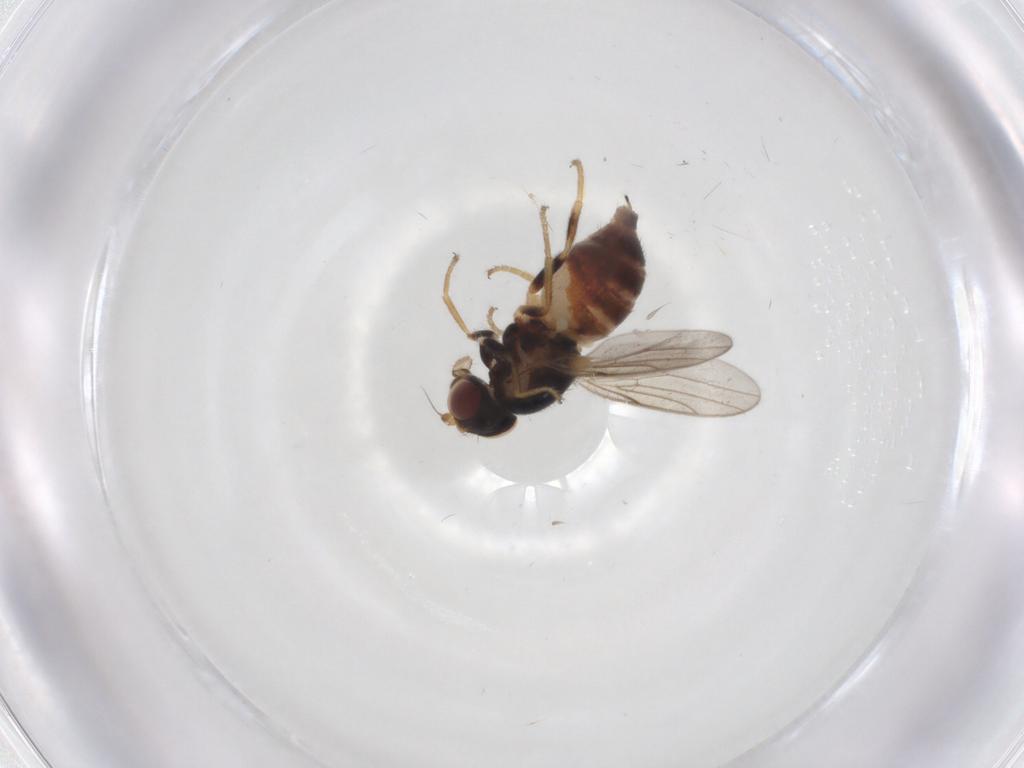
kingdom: Animalia
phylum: Arthropoda
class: Insecta
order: Diptera
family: Chloropidae
